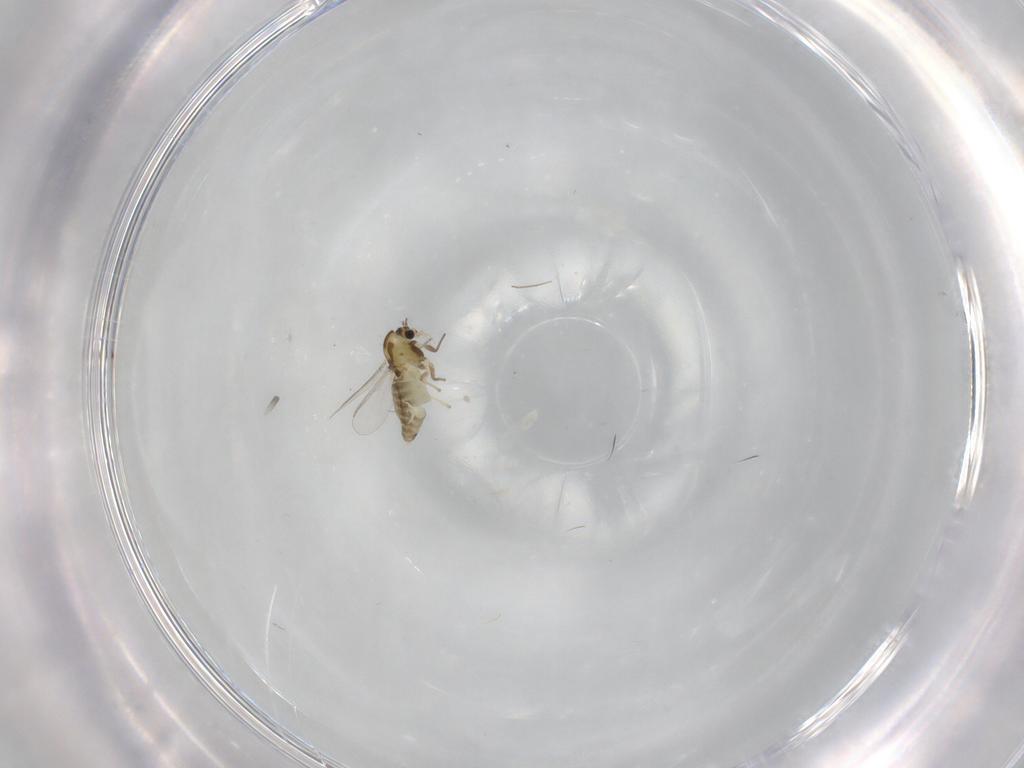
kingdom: Animalia
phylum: Arthropoda
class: Insecta
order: Diptera
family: Chironomidae
